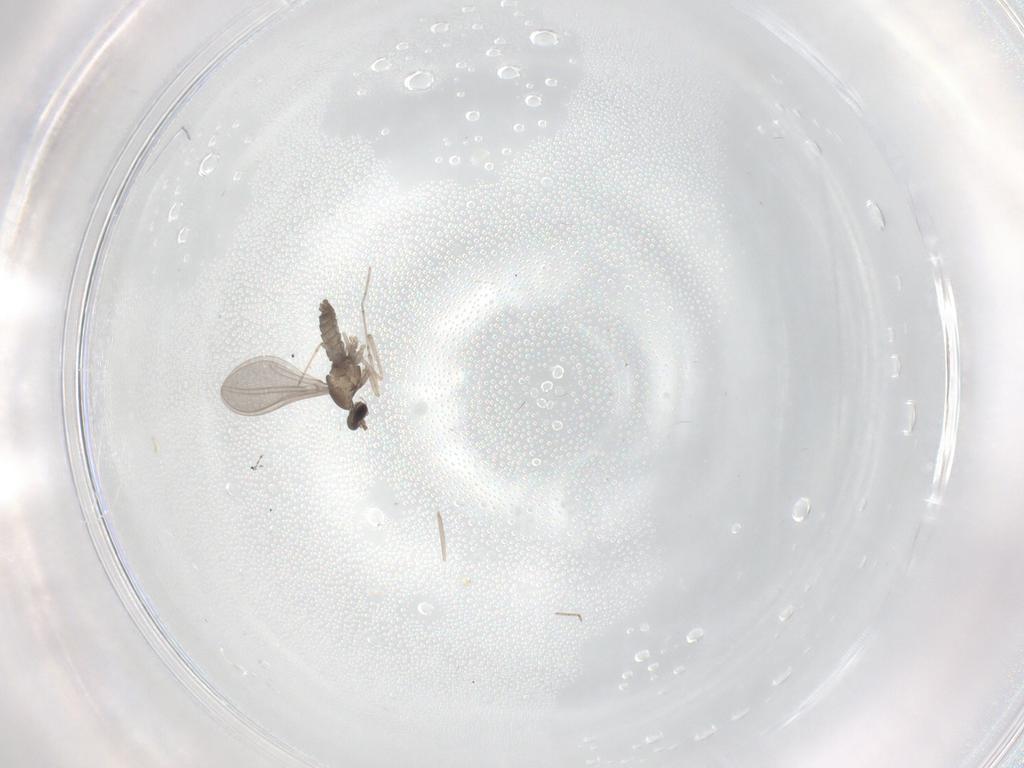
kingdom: Animalia
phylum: Arthropoda
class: Insecta
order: Diptera
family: Cecidomyiidae
